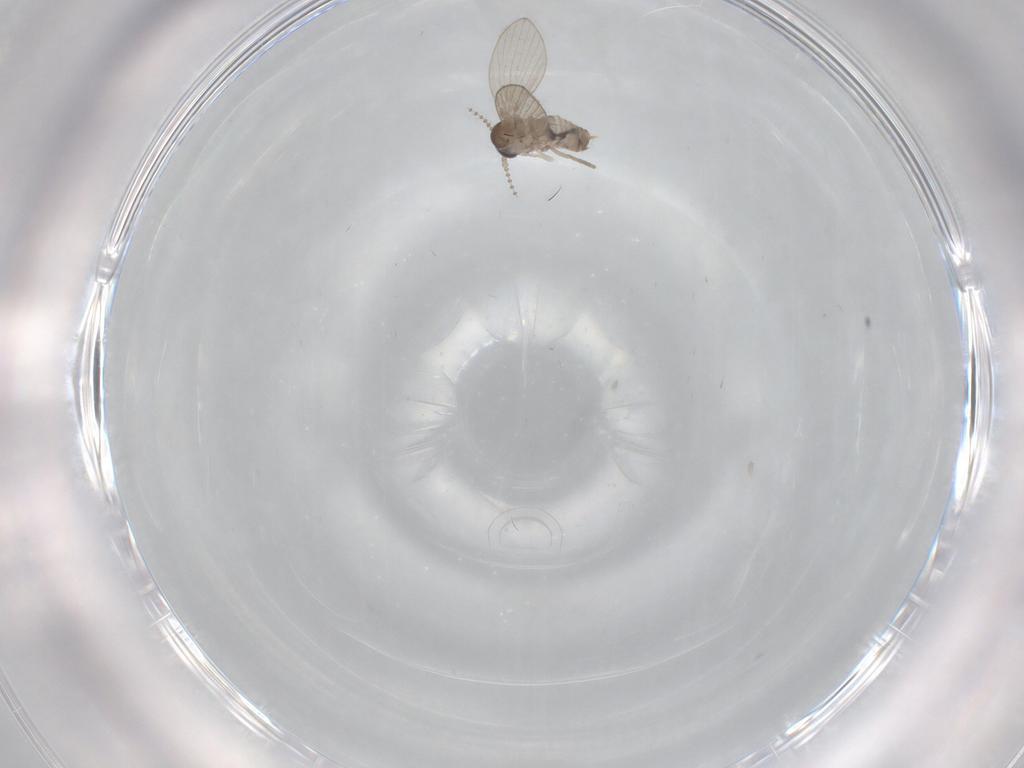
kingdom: Animalia
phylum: Arthropoda
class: Insecta
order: Diptera
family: Psychodidae
